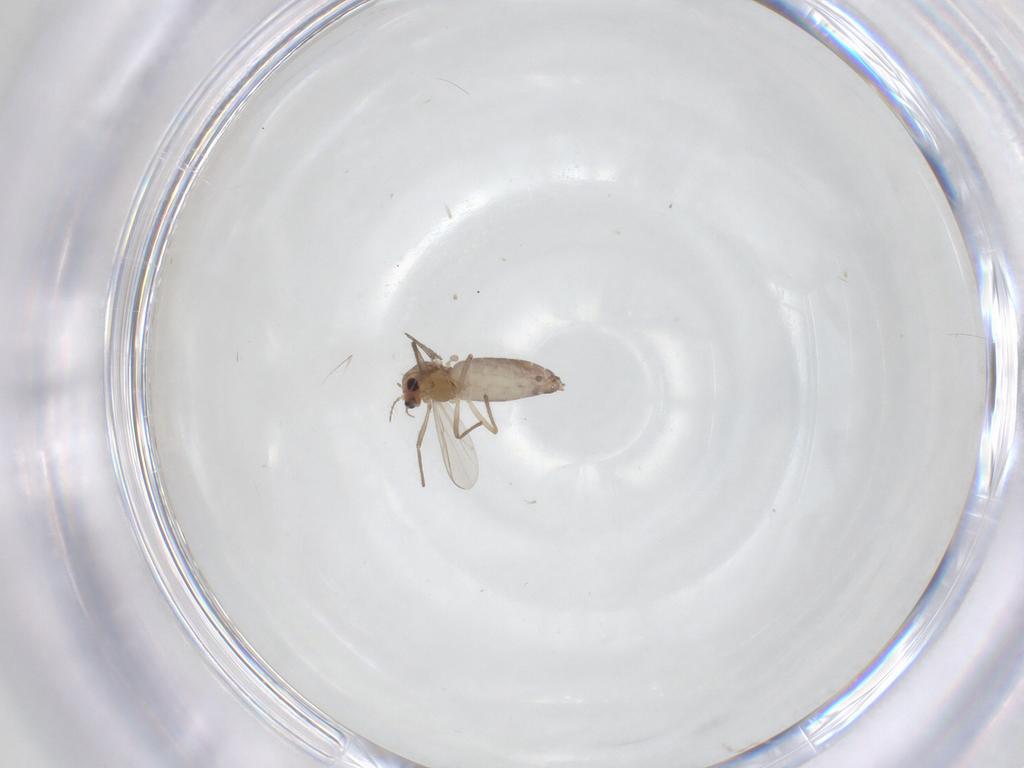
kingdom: Animalia
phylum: Arthropoda
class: Insecta
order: Diptera
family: Chironomidae
